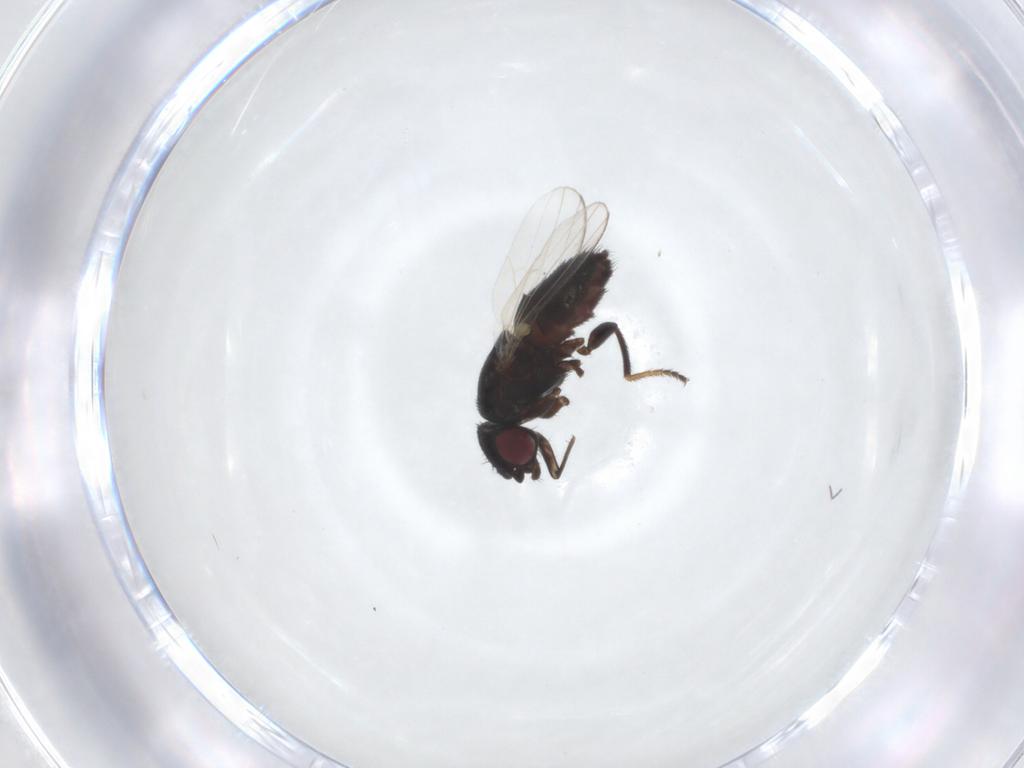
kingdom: Animalia
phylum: Arthropoda
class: Insecta
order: Diptera
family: Milichiidae
